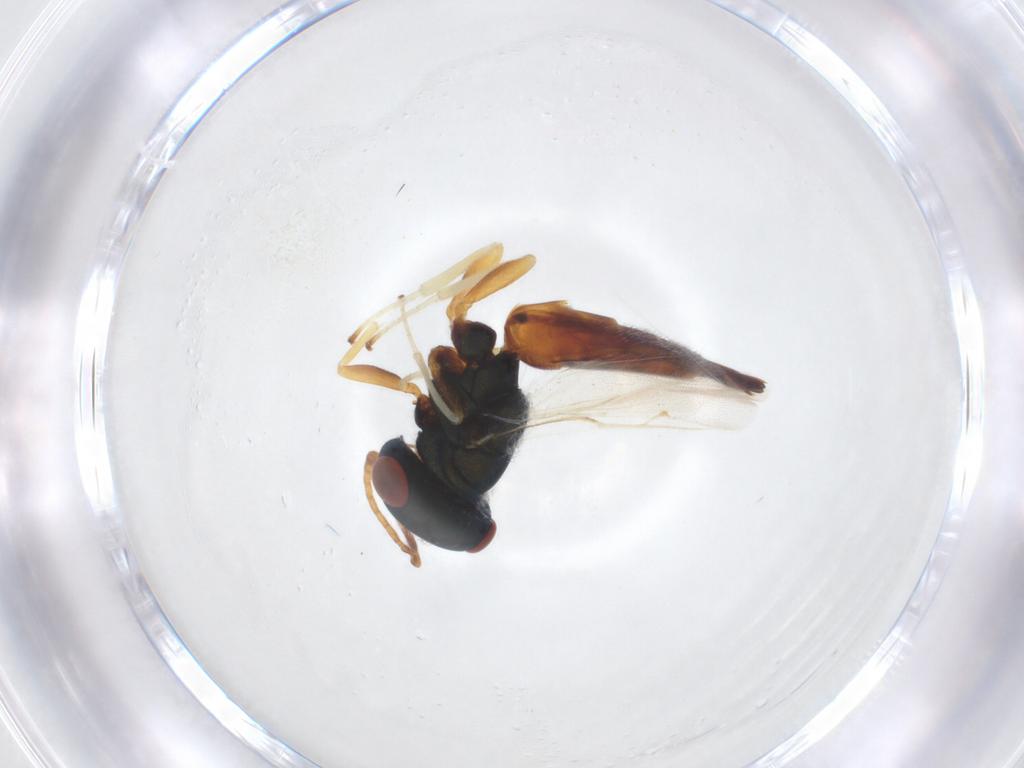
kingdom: Animalia
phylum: Arthropoda
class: Insecta
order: Hymenoptera
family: Pteromalidae
